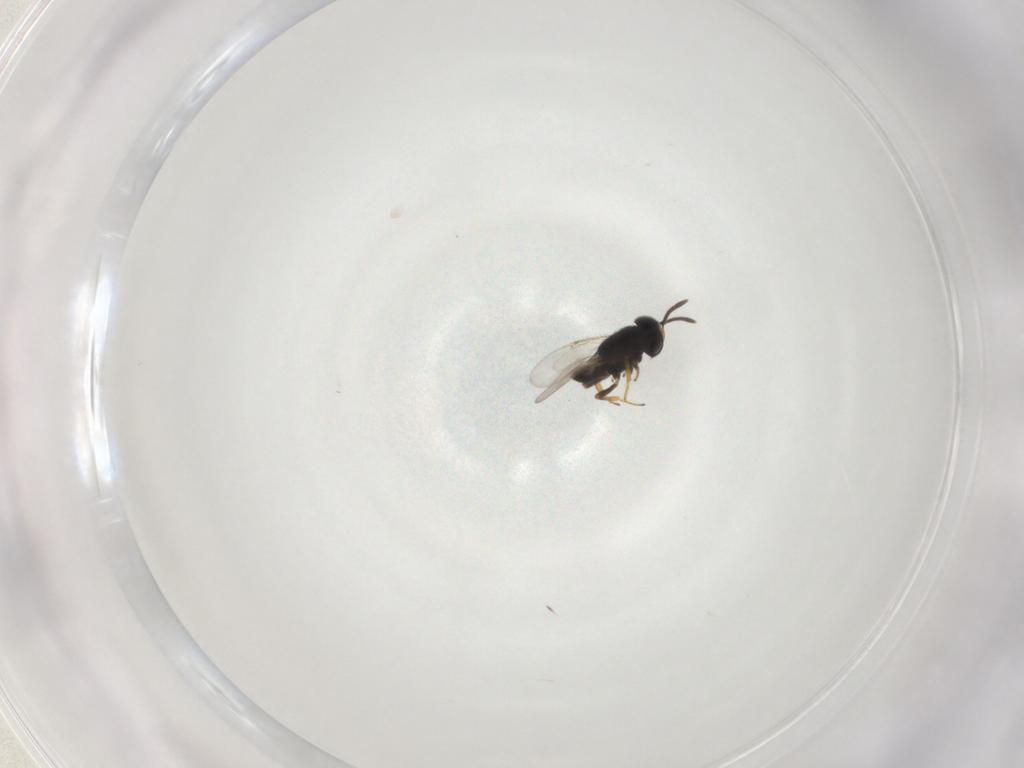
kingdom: Animalia
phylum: Arthropoda
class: Insecta
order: Hymenoptera
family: Encyrtidae
